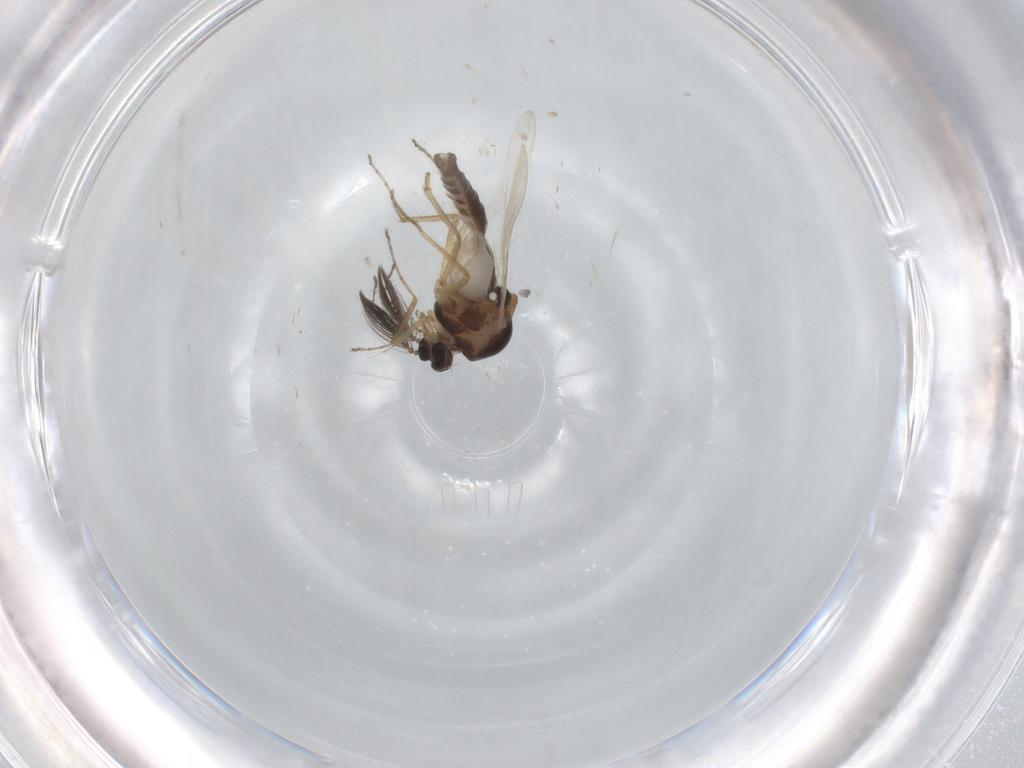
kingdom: Animalia
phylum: Arthropoda
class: Insecta
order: Diptera
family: Ceratopogonidae
